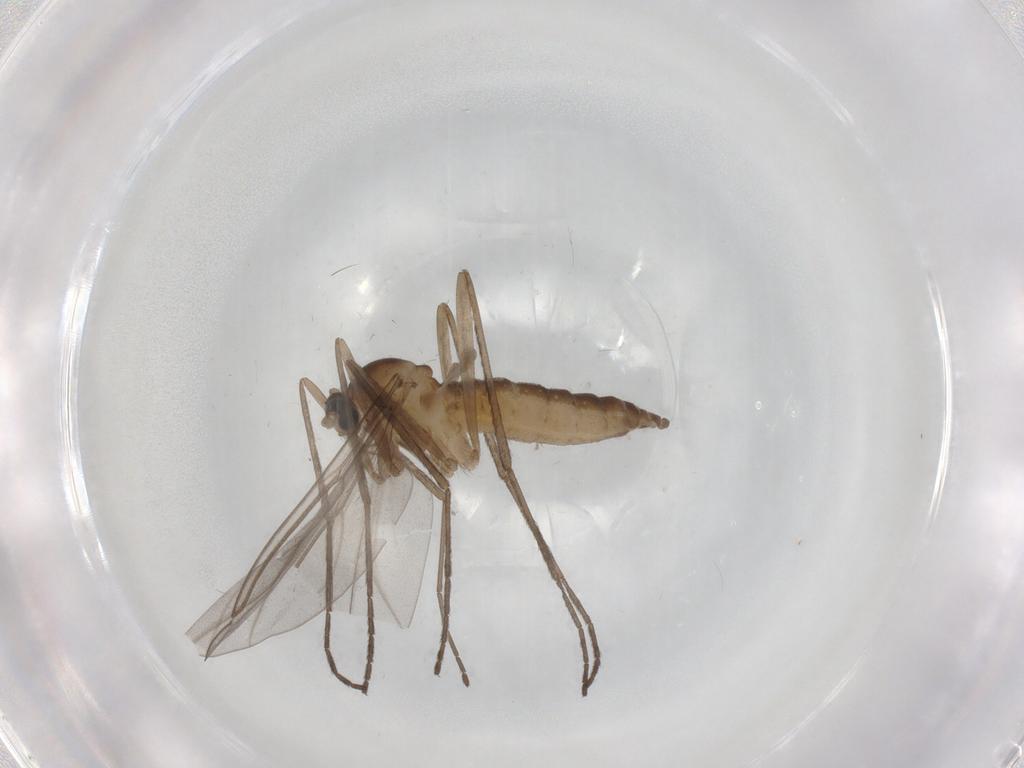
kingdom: Animalia
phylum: Arthropoda
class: Insecta
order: Diptera
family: Cecidomyiidae
